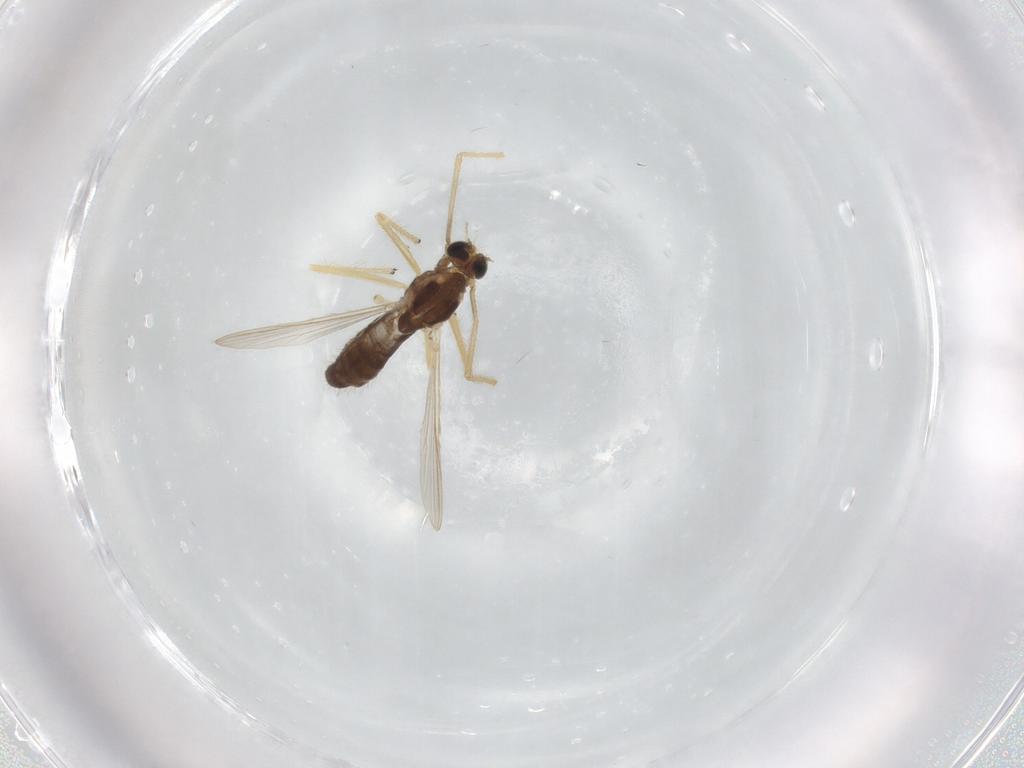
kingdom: Animalia
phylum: Arthropoda
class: Insecta
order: Diptera
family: Chironomidae
